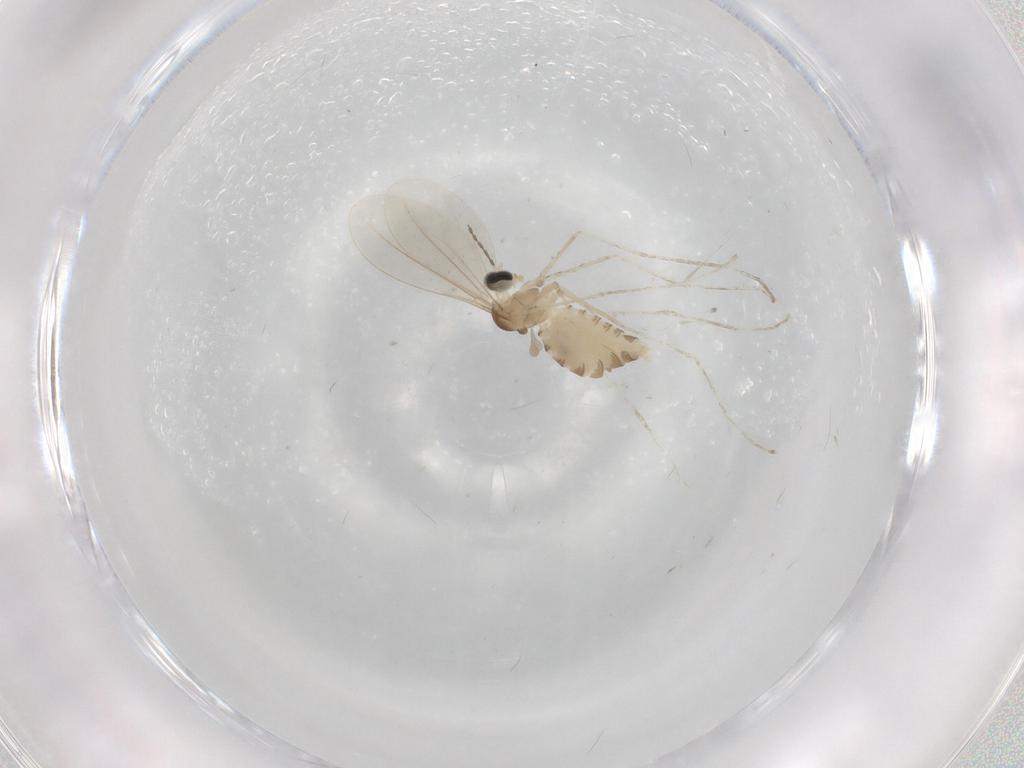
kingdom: Animalia
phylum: Arthropoda
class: Insecta
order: Diptera
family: Cecidomyiidae
